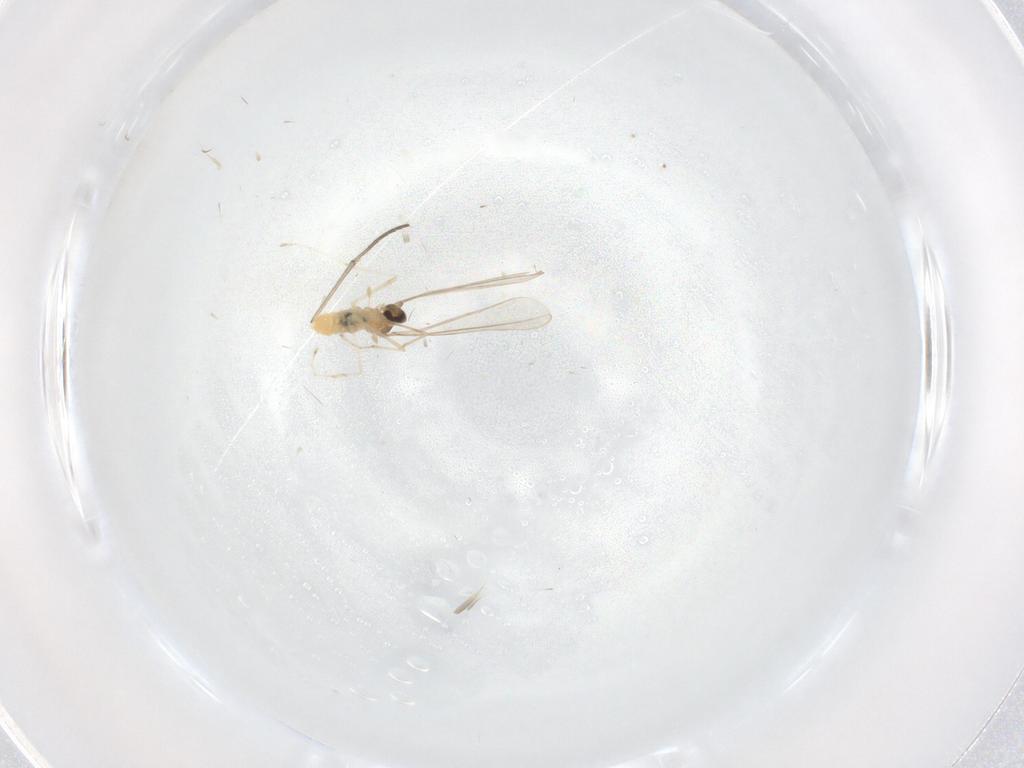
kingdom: Animalia
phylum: Arthropoda
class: Insecta
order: Diptera
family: Cecidomyiidae
